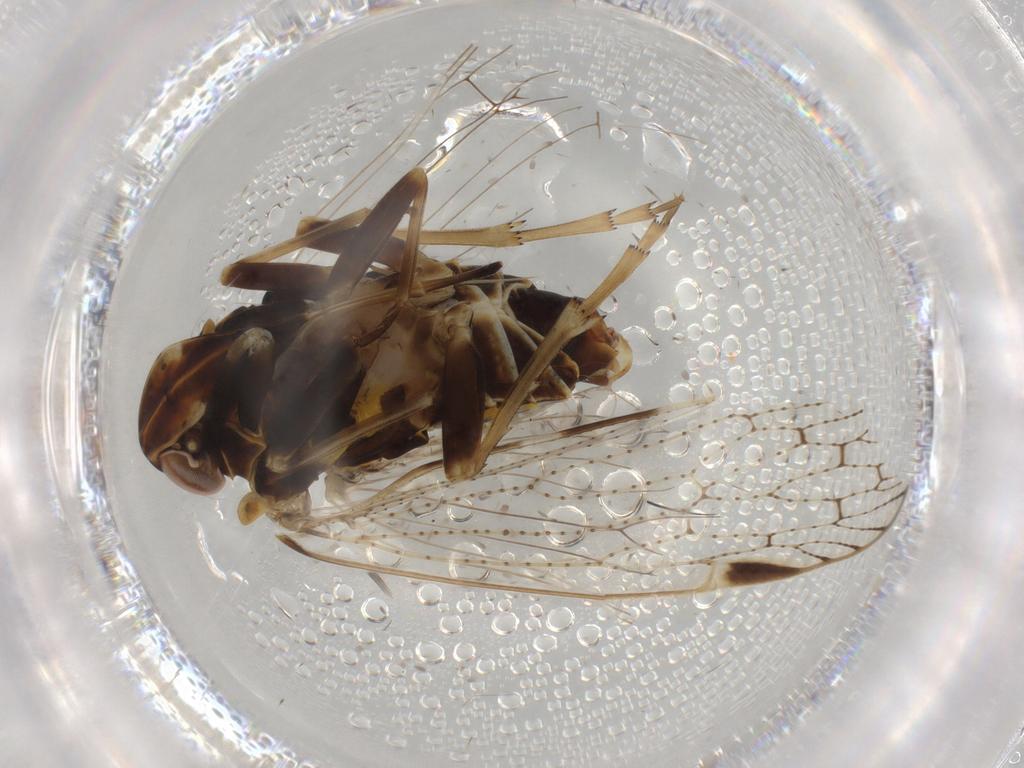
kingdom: Animalia
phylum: Arthropoda
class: Insecta
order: Hemiptera
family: Cixiidae
